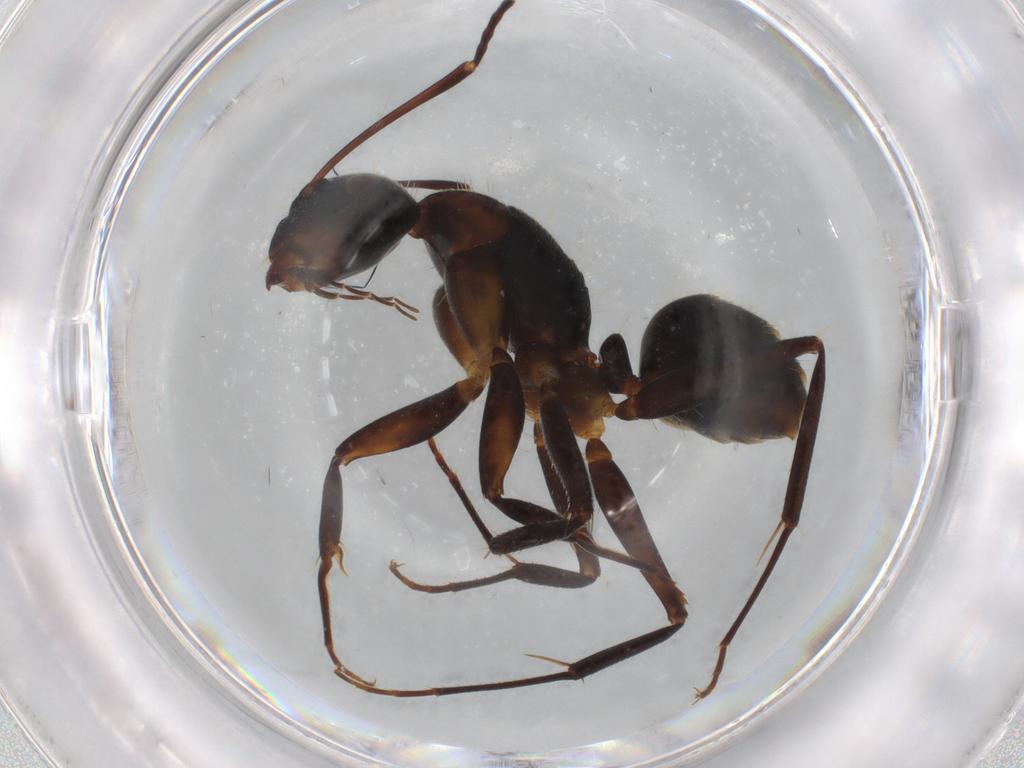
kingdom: Animalia
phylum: Arthropoda
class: Insecta
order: Hymenoptera
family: Formicidae
